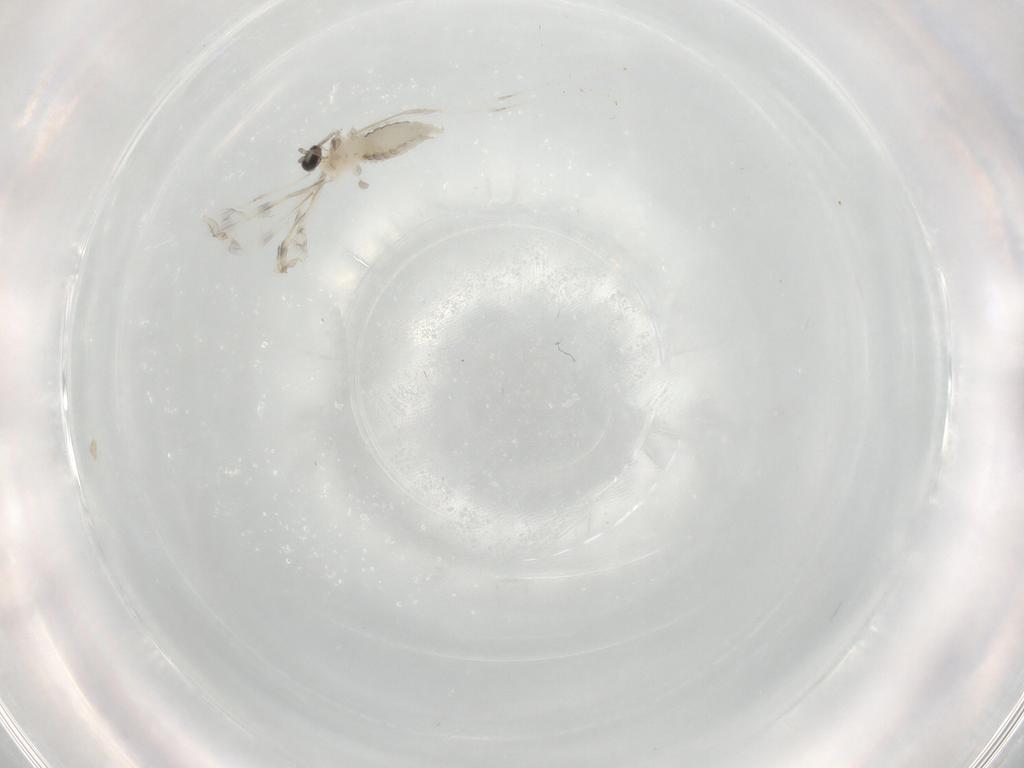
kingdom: Animalia
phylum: Arthropoda
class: Insecta
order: Diptera
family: Cecidomyiidae
